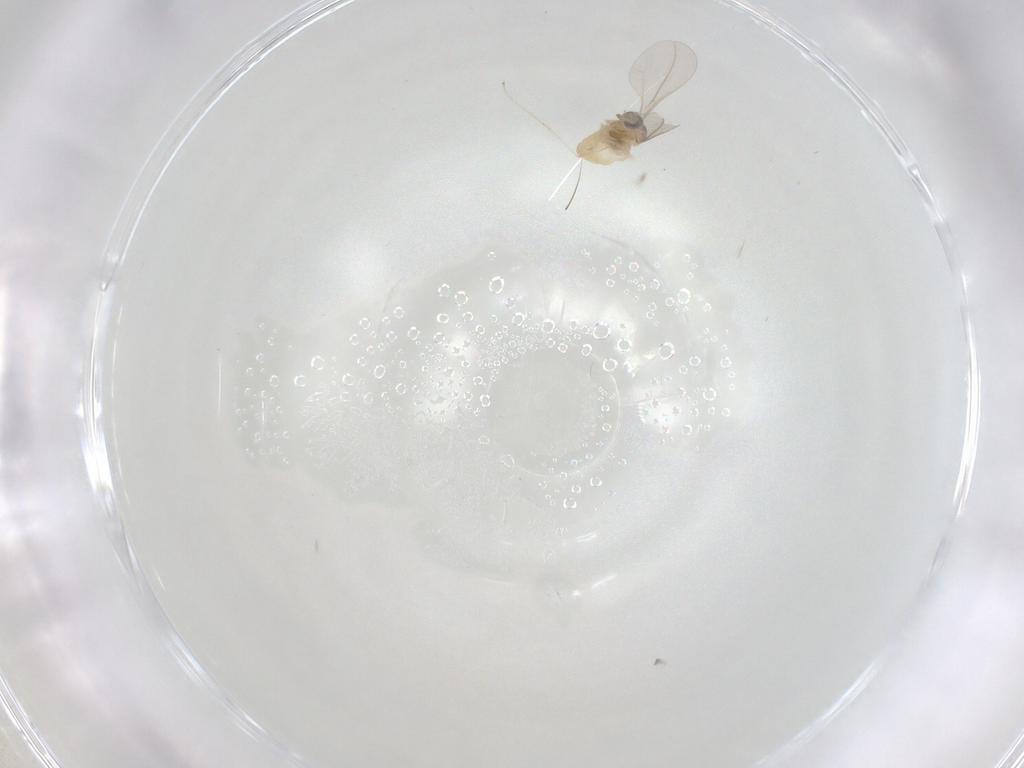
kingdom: Animalia
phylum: Arthropoda
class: Insecta
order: Diptera
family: Cecidomyiidae
